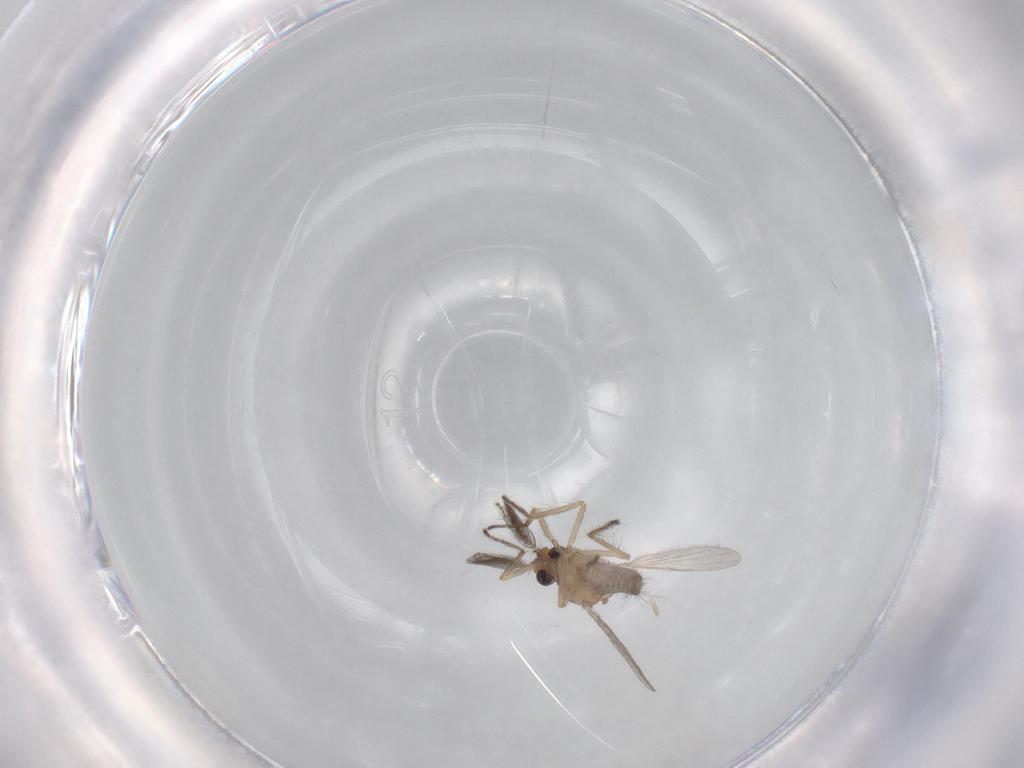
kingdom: Animalia
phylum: Arthropoda
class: Insecta
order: Diptera
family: Ceratopogonidae
